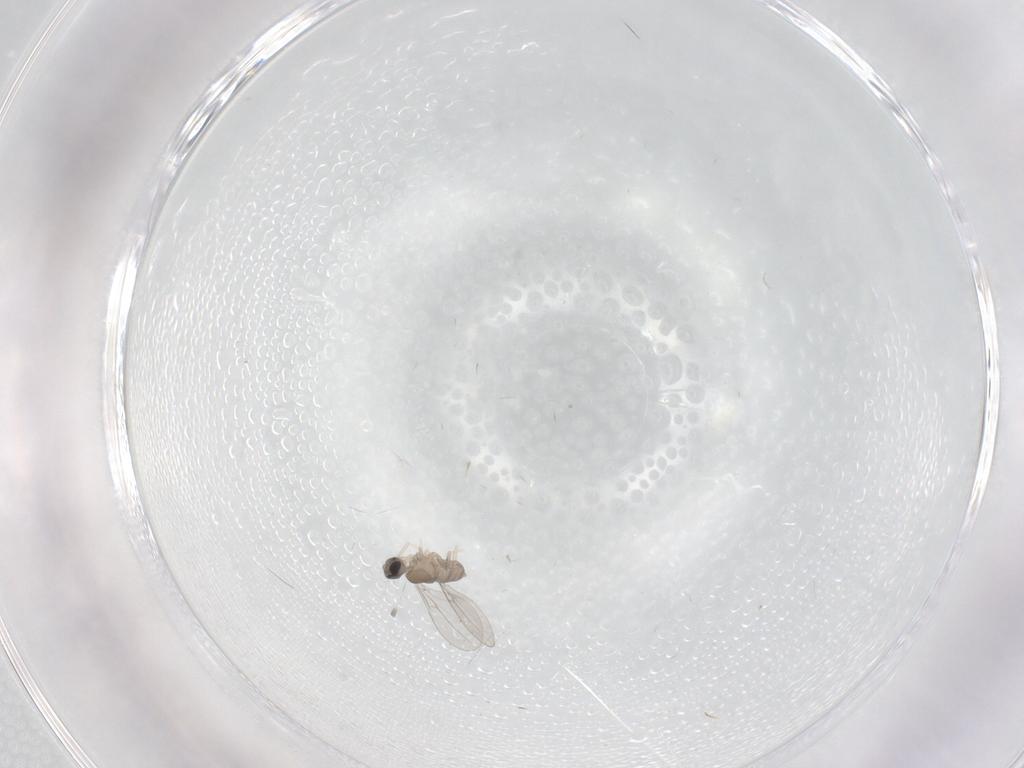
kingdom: Animalia
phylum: Arthropoda
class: Insecta
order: Diptera
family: Cecidomyiidae
